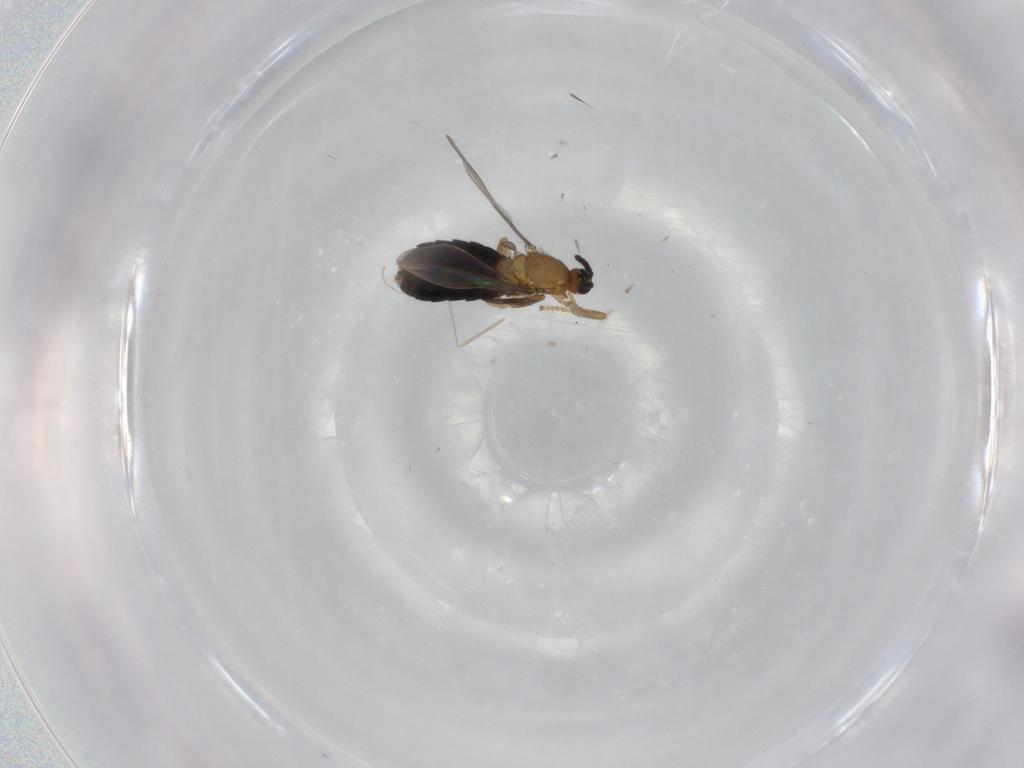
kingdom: Animalia
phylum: Arthropoda
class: Insecta
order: Diptera
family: Scatopsidae
